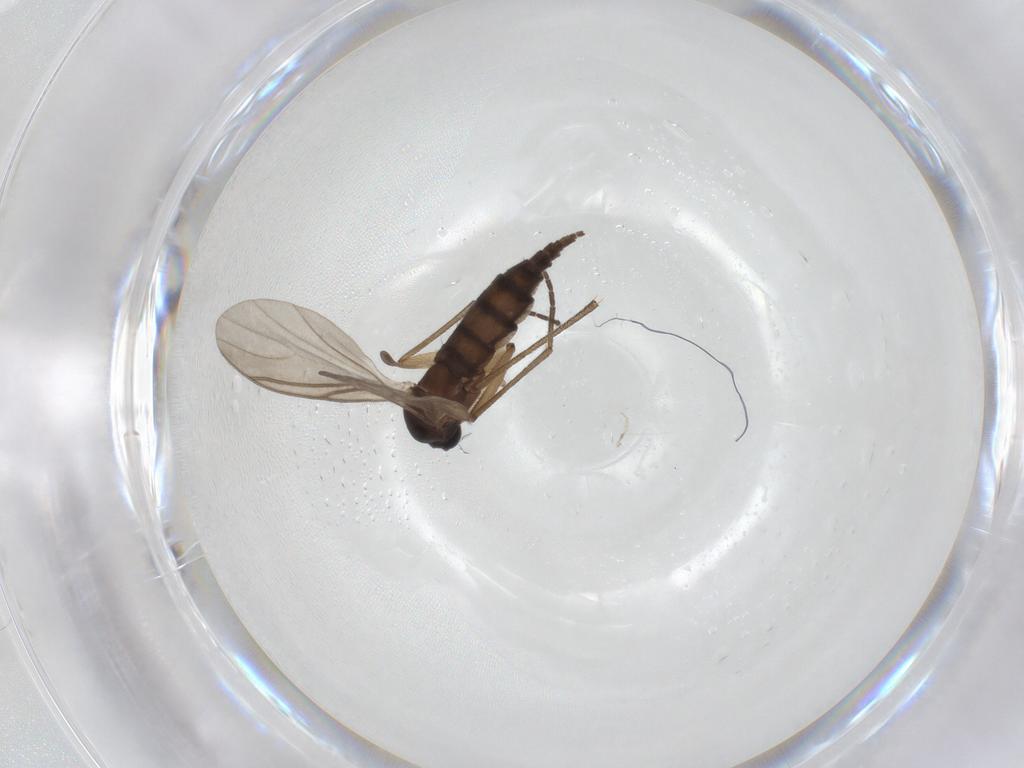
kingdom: Animalia
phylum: Arthropoda
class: Insecta
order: Diptera
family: Sciaridae
